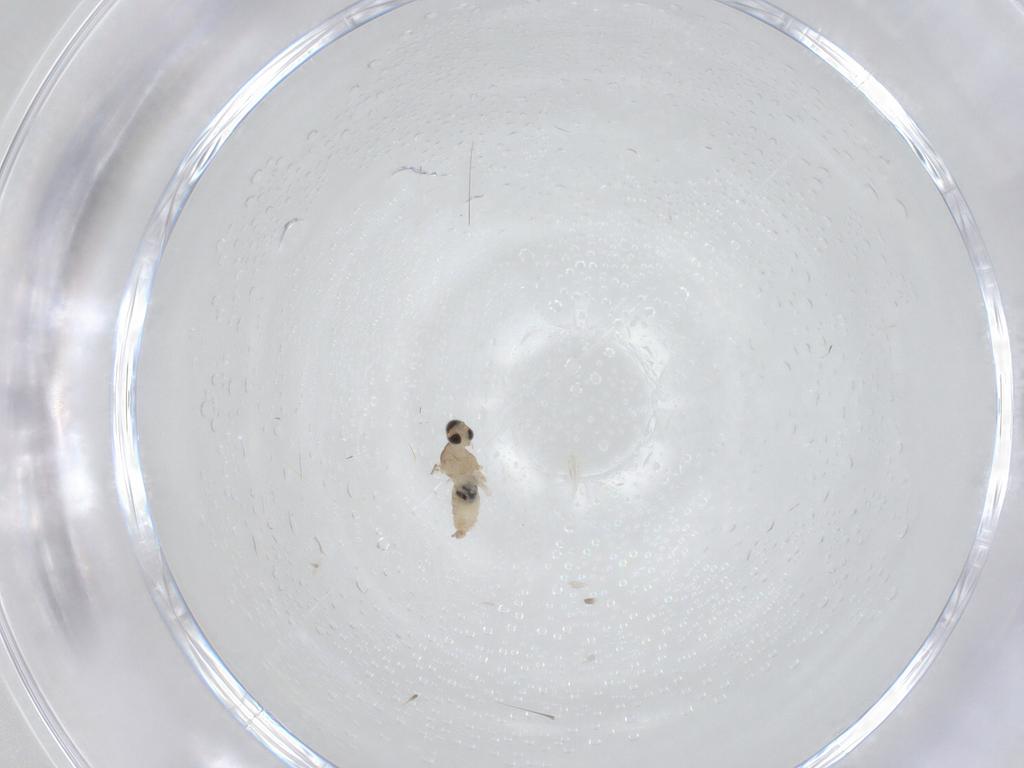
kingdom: Animalia
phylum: Arthropoda
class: Insecta
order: Diptera
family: Cecidomyiidae
